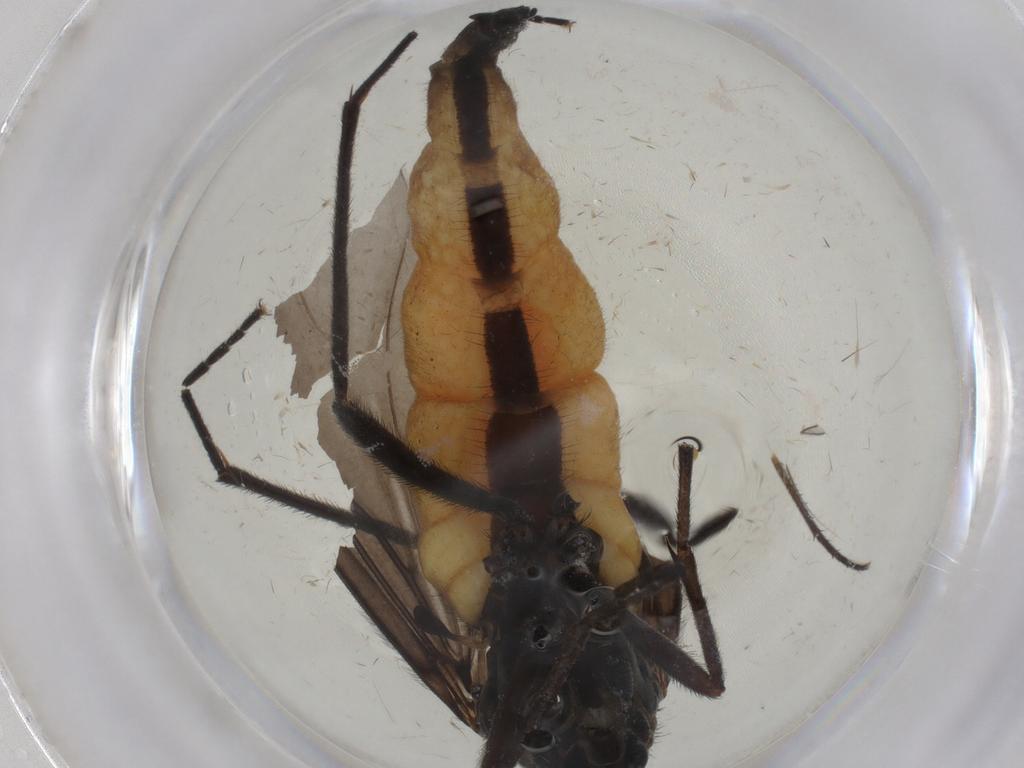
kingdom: Animalia
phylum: Arthropoda
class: Insecta
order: Diptera
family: Sciaridae
